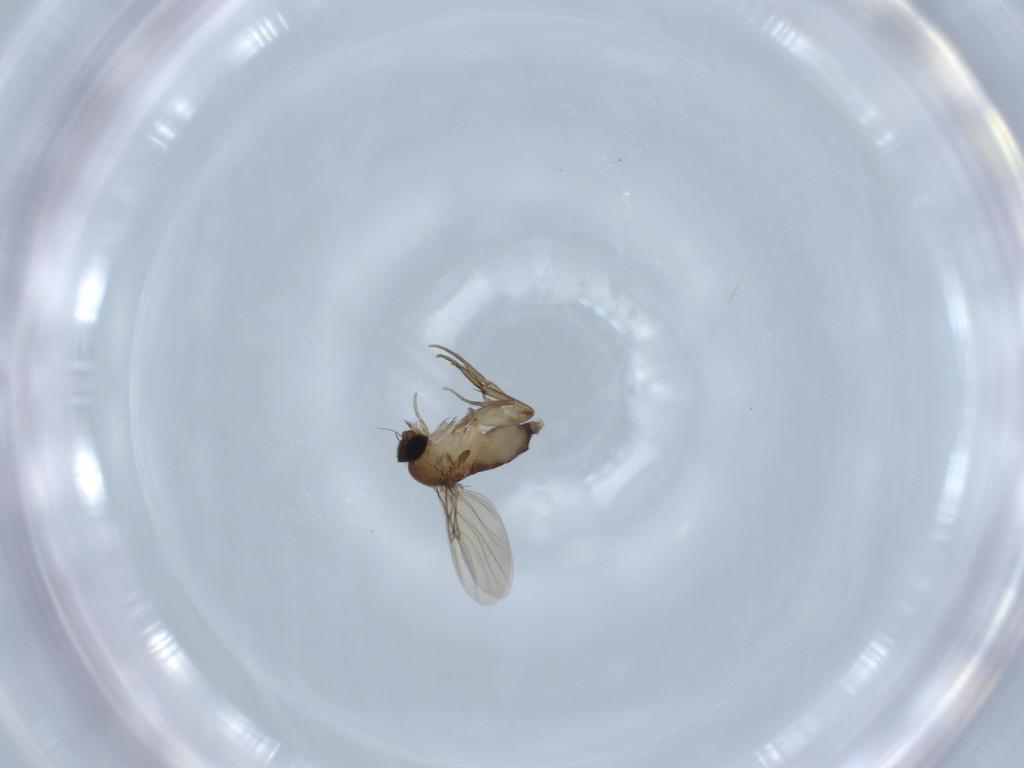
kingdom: Animalia
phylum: Arthropoda
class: Insecta
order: Diptera
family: Phoridae
